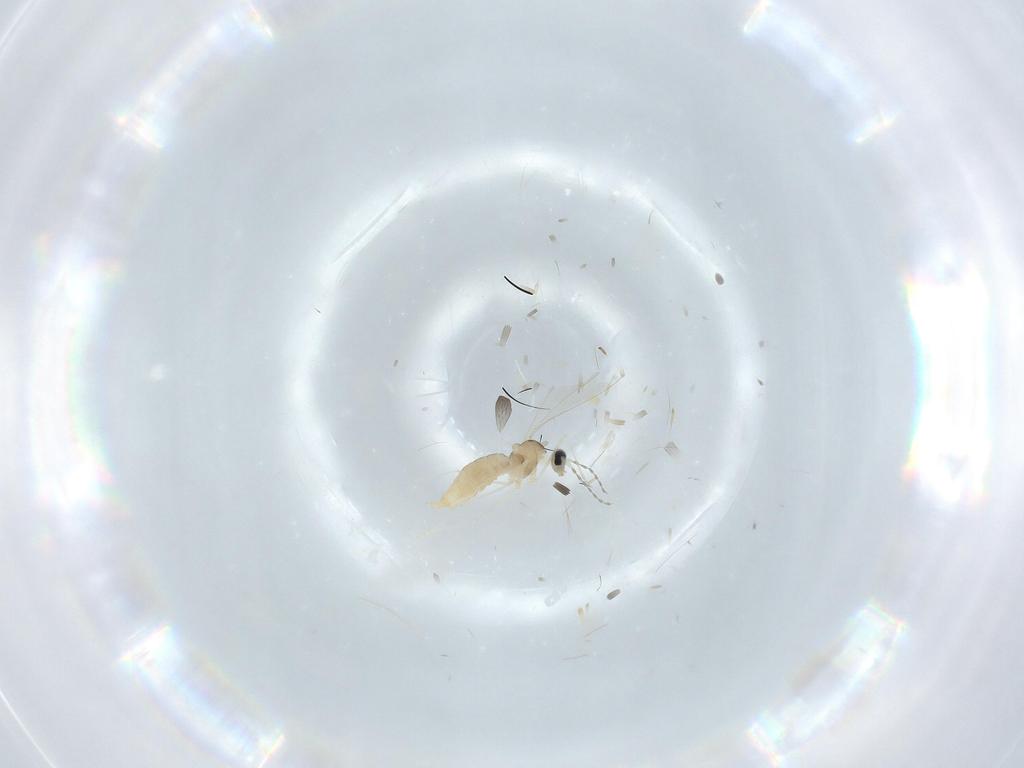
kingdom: Animalia
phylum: Arthropoda
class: Insecta
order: Diptera
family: Cecidomyiidae
